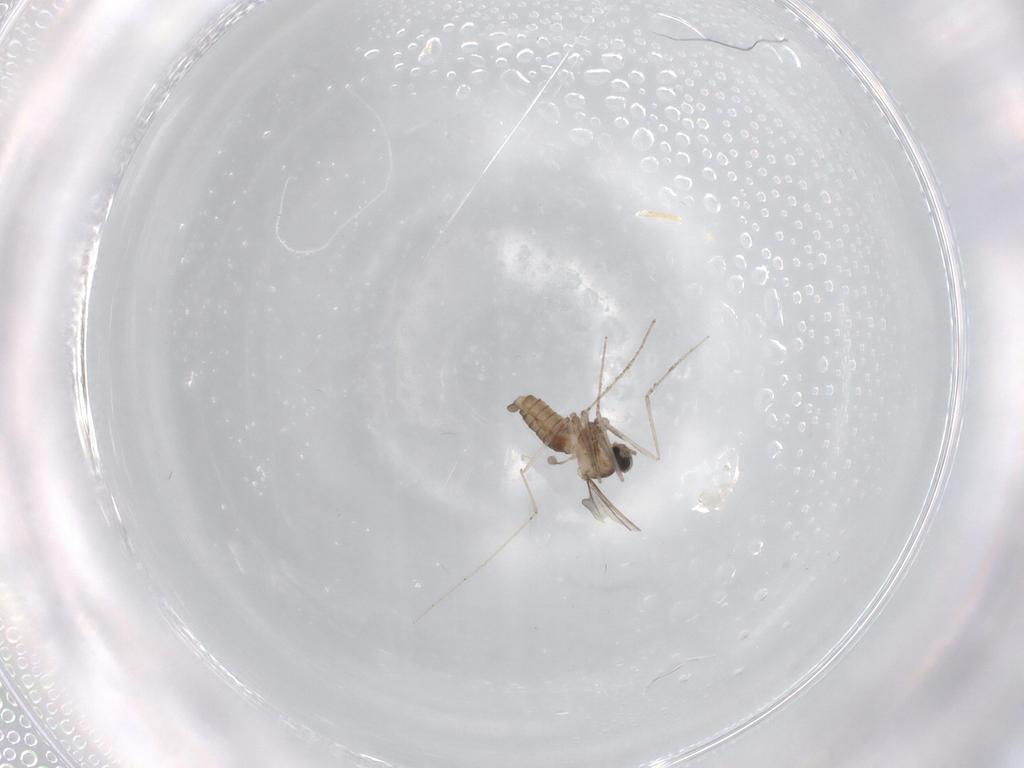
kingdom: Animalia
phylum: Arthropoda
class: Insecta
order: Diptera
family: Cecidomyiidae
